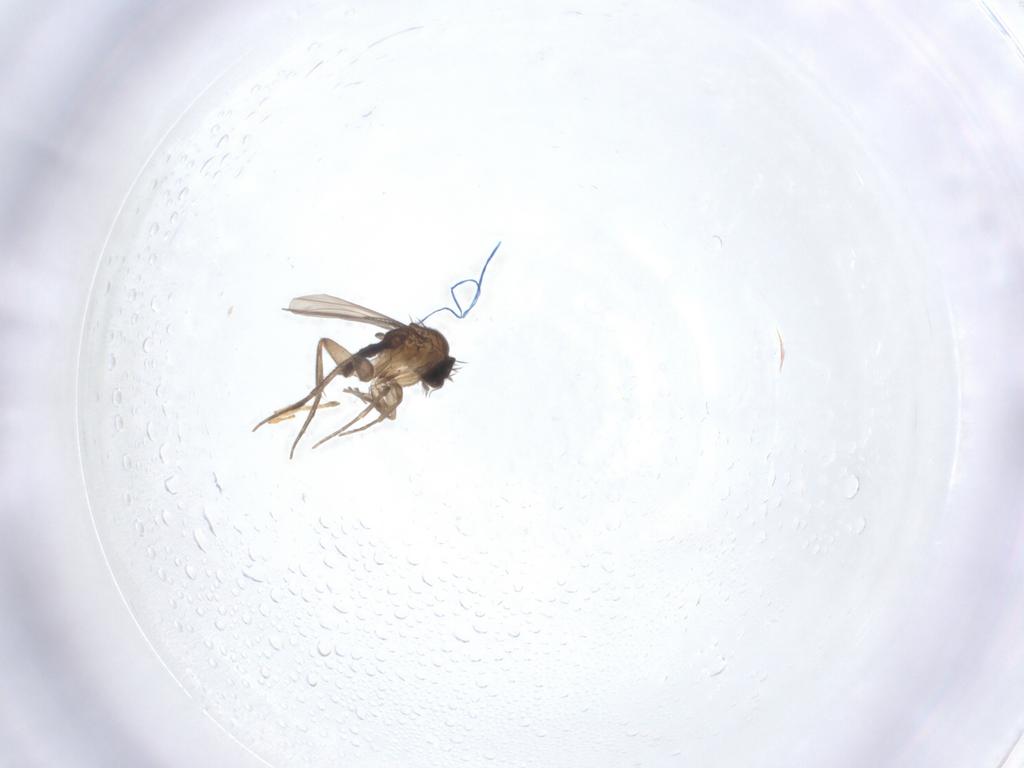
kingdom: Animalia
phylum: Arthropoda
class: Insecta
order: Diptera
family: Phoridae
